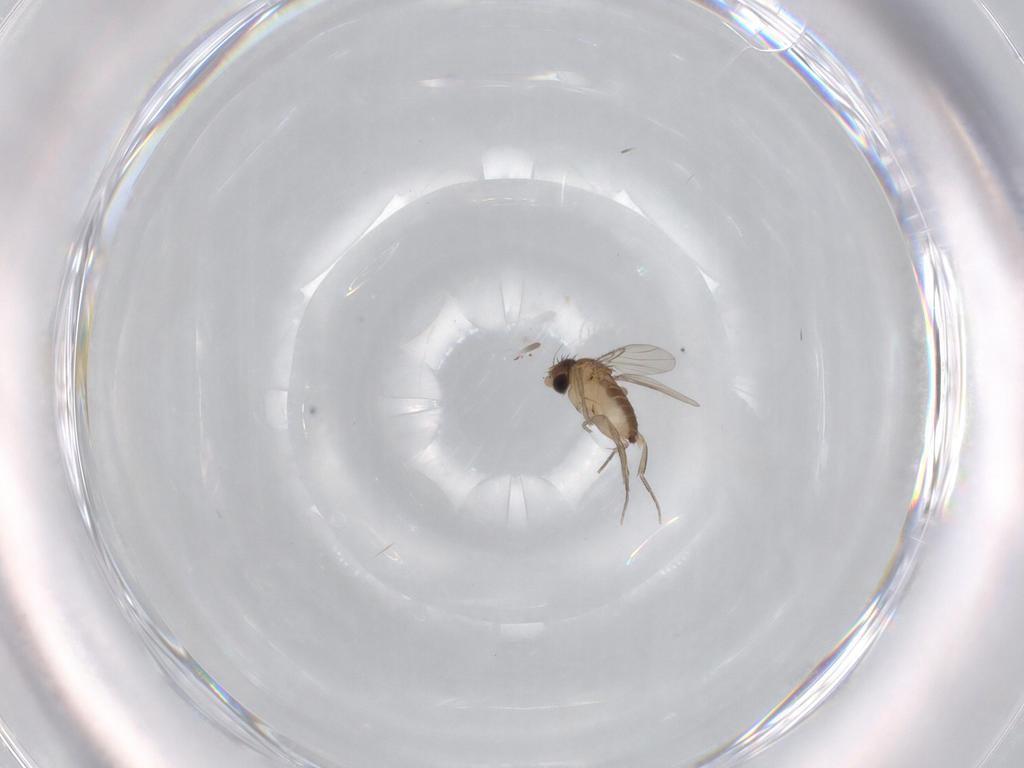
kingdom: Animalia
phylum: Arthropoda
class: Insecta
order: Diptera
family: Phoridae
